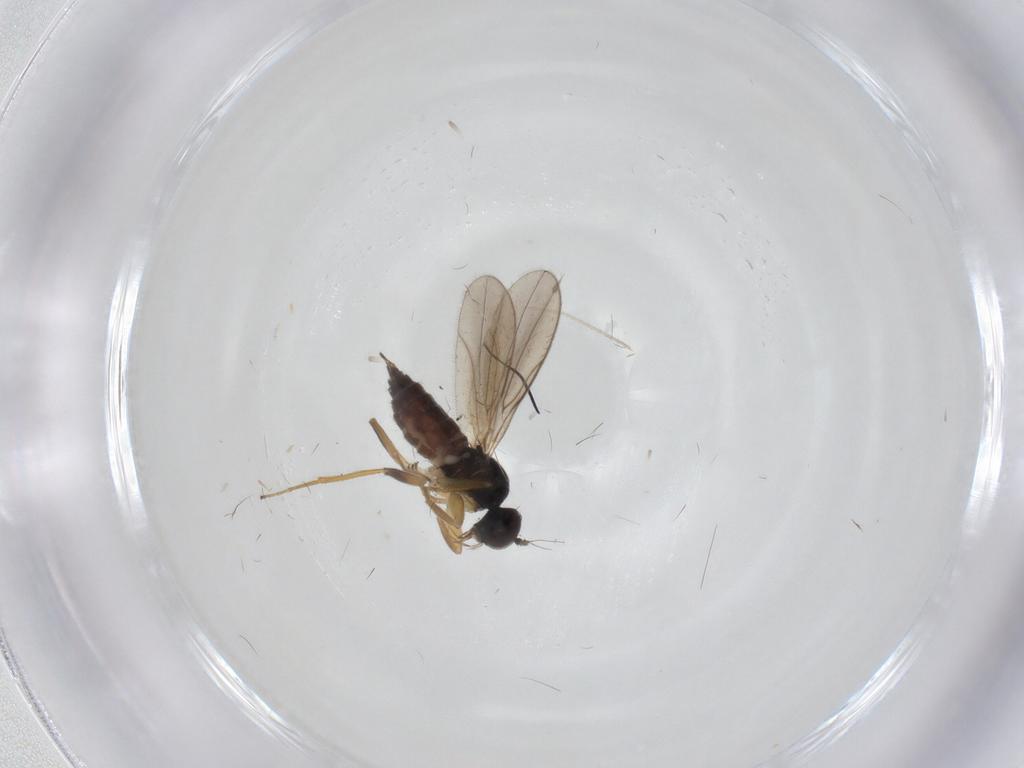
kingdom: Animalia
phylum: Arthropoda
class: Insecta
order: Diptera
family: Hybotidae
